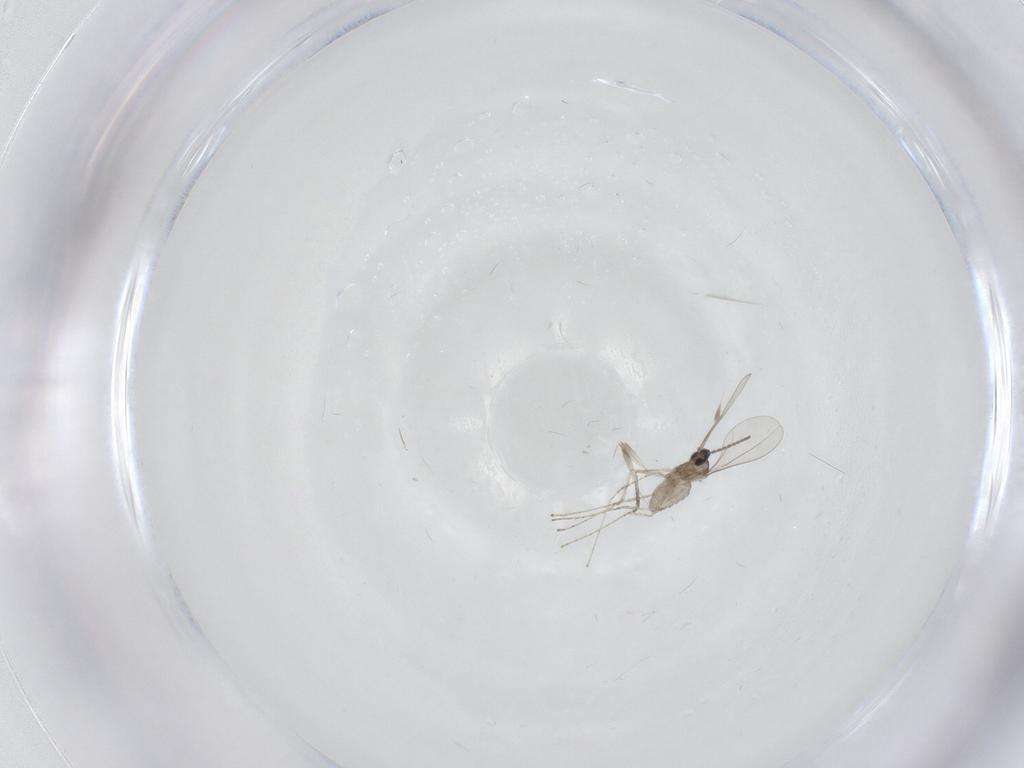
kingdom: Animalia
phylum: Arthropoda
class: Insecta
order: Diptera
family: Cecidomyiidae
